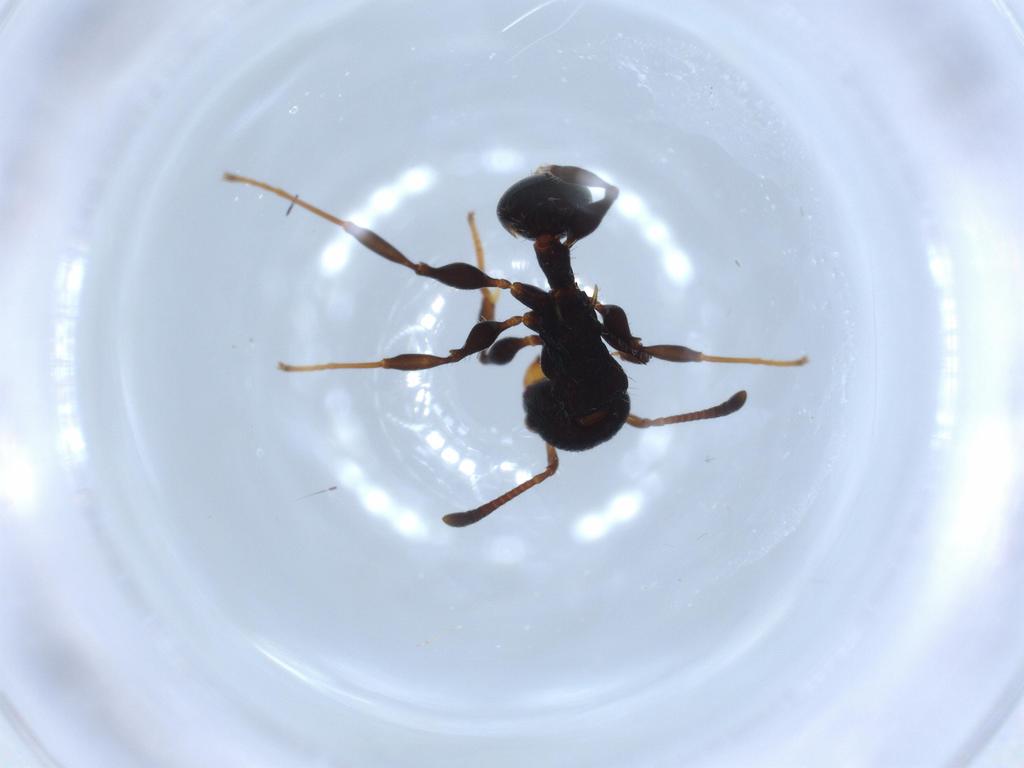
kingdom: Animalia
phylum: Arthropoda
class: Insecta
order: Hymenoptera
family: Formicidae
